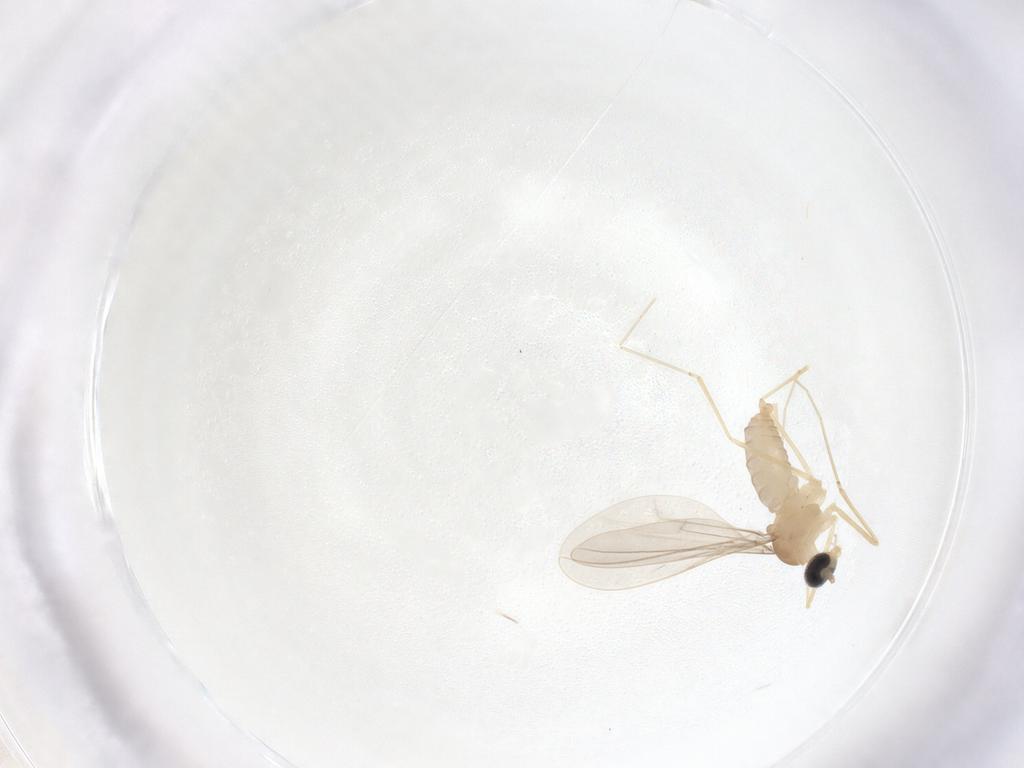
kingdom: Animalia
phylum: Arthropoda
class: Insecta
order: Diptera
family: Cecidomyiidae
